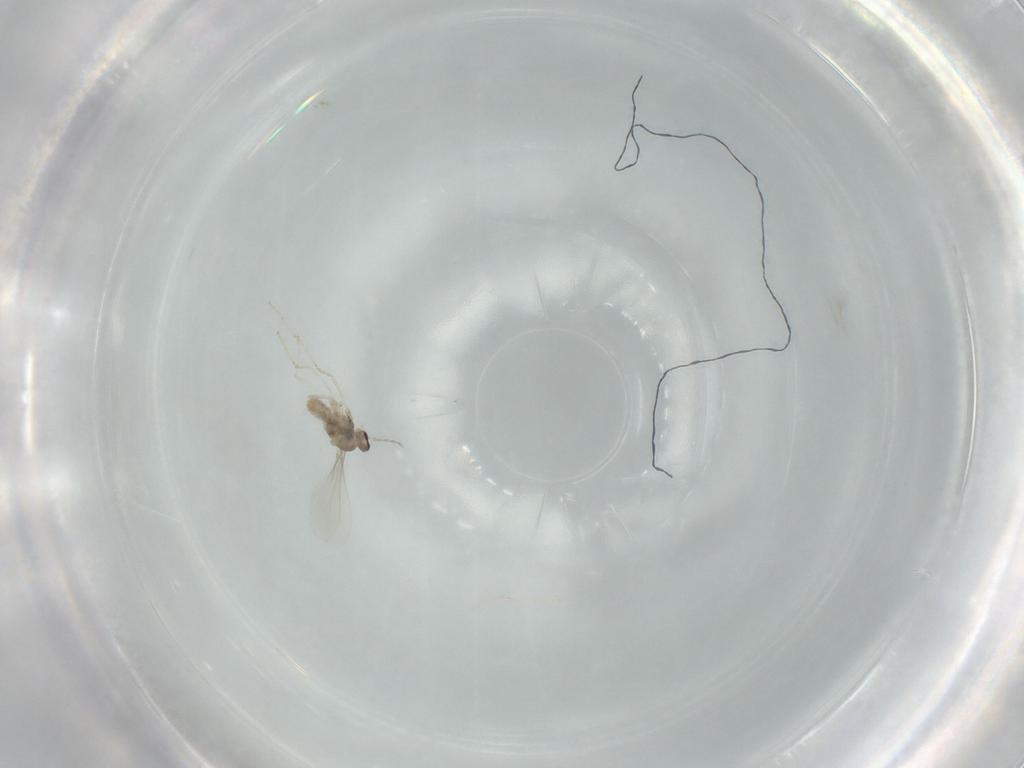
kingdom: Animalia
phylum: Arthropoda
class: Insecta
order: Diptera
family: Cecidomyiidae
